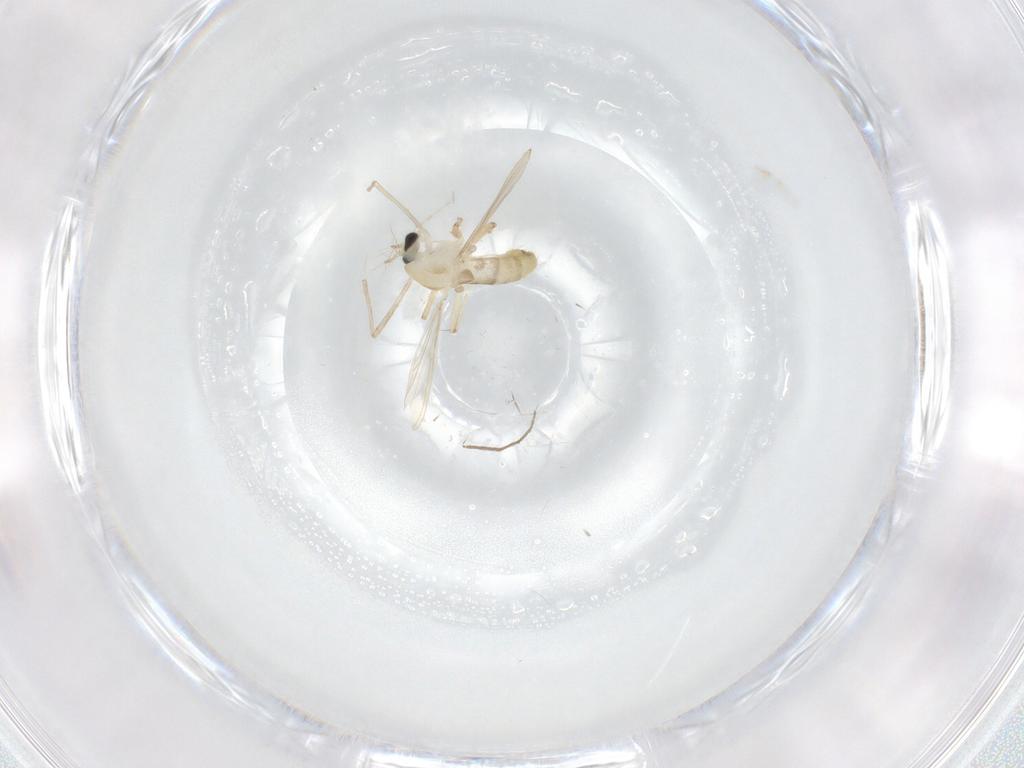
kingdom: Animalia
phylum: Arthropoda
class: Insecta
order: Diptera
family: Chironomidae
